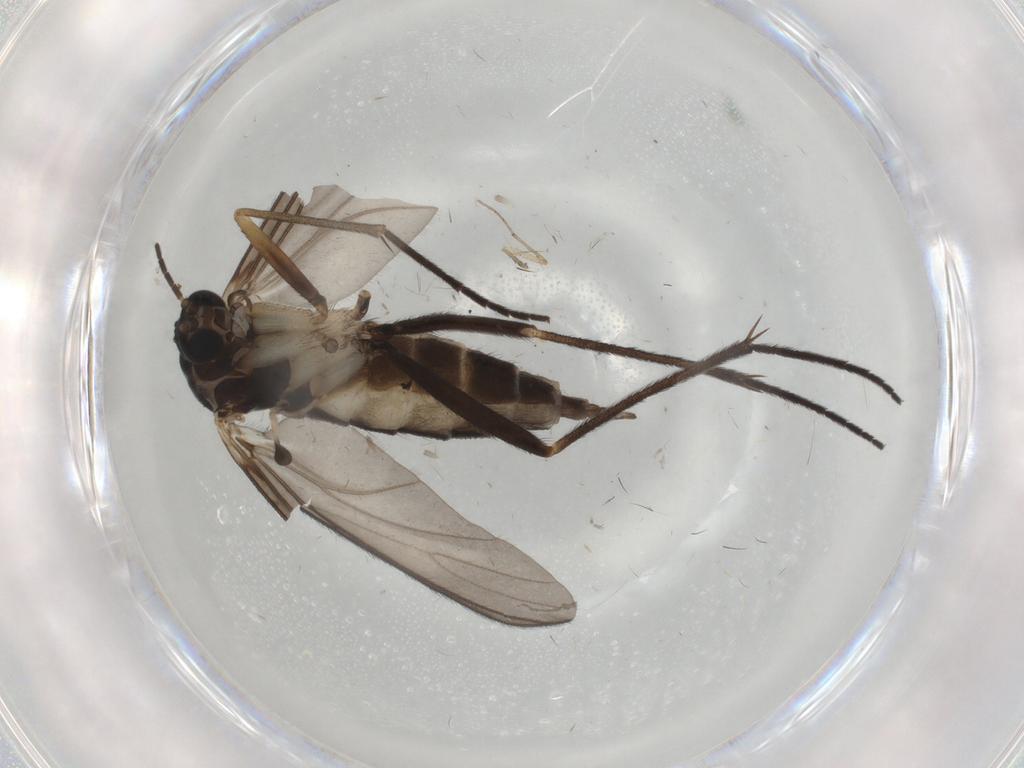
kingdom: Animalia
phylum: Arthropoda
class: Insecta
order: Diptera
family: Sciaridae
